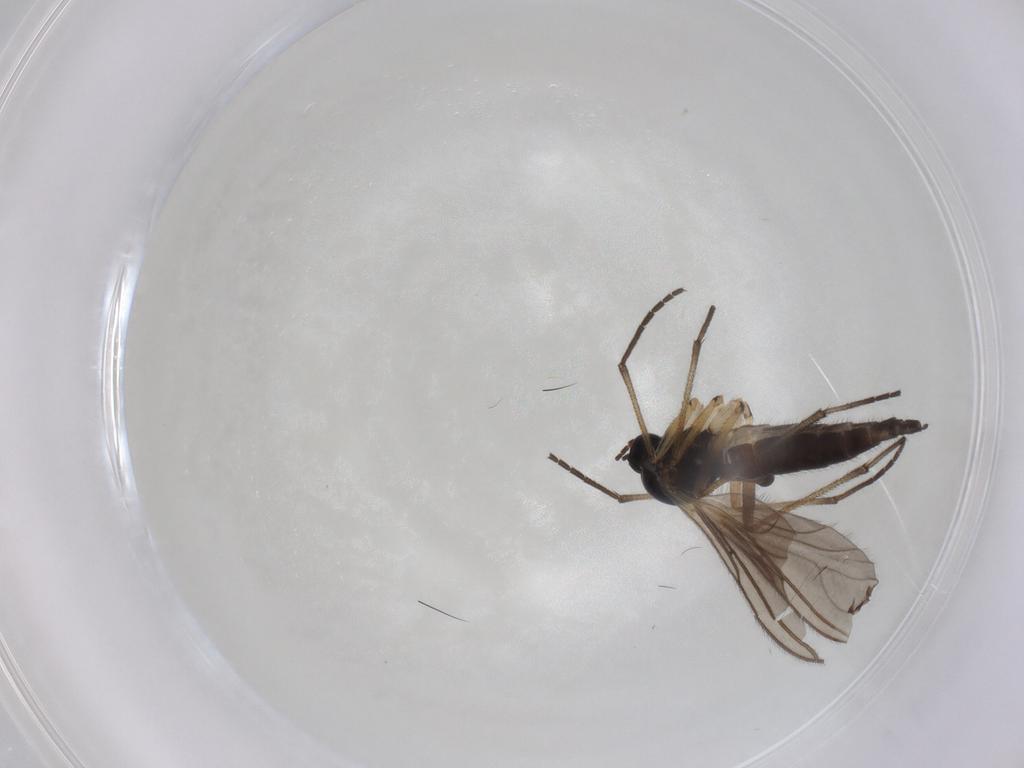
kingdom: Animalia
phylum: Arthropoda
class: Insecta
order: Diptera
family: Sciaridae
